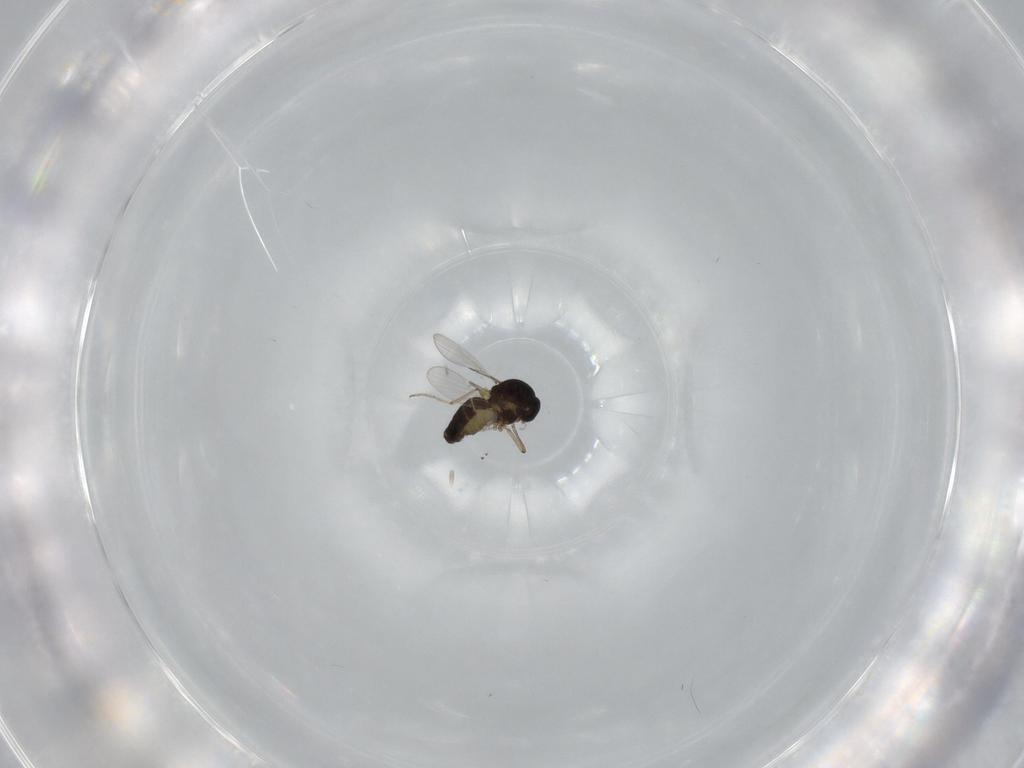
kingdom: Animalia
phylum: Arthropoda
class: Insecta
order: Diptera
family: Ceratopogonidae
